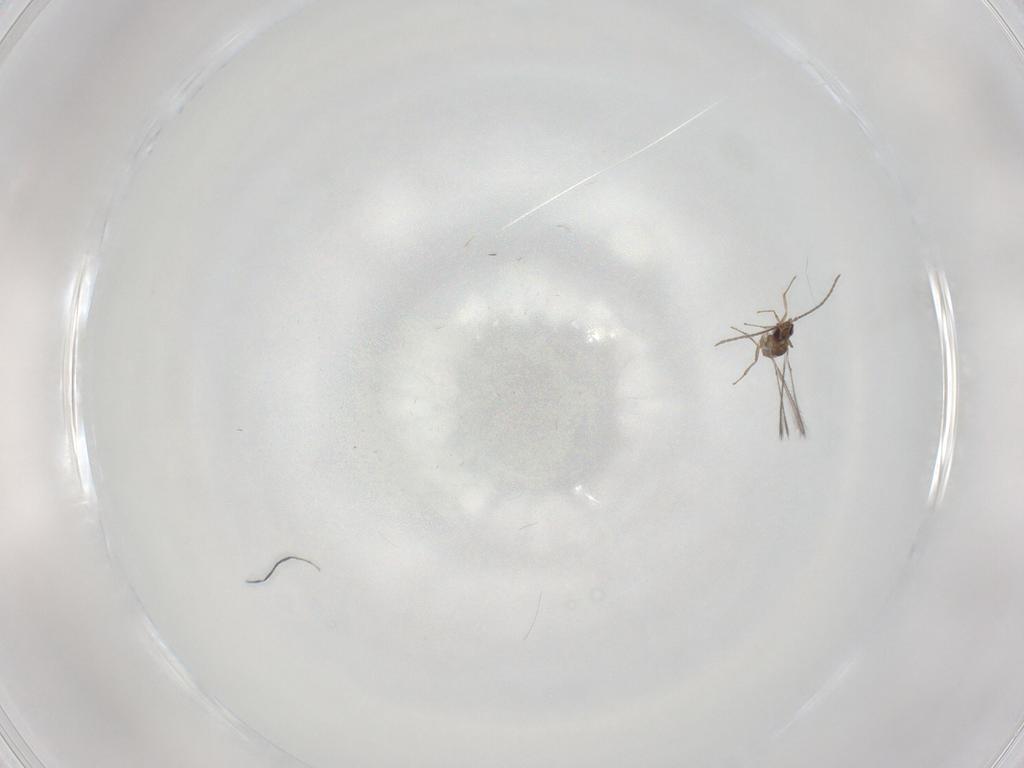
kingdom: Animalia
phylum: Arthropoda
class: Insecta
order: Hymenoptera
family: Mymaridae
